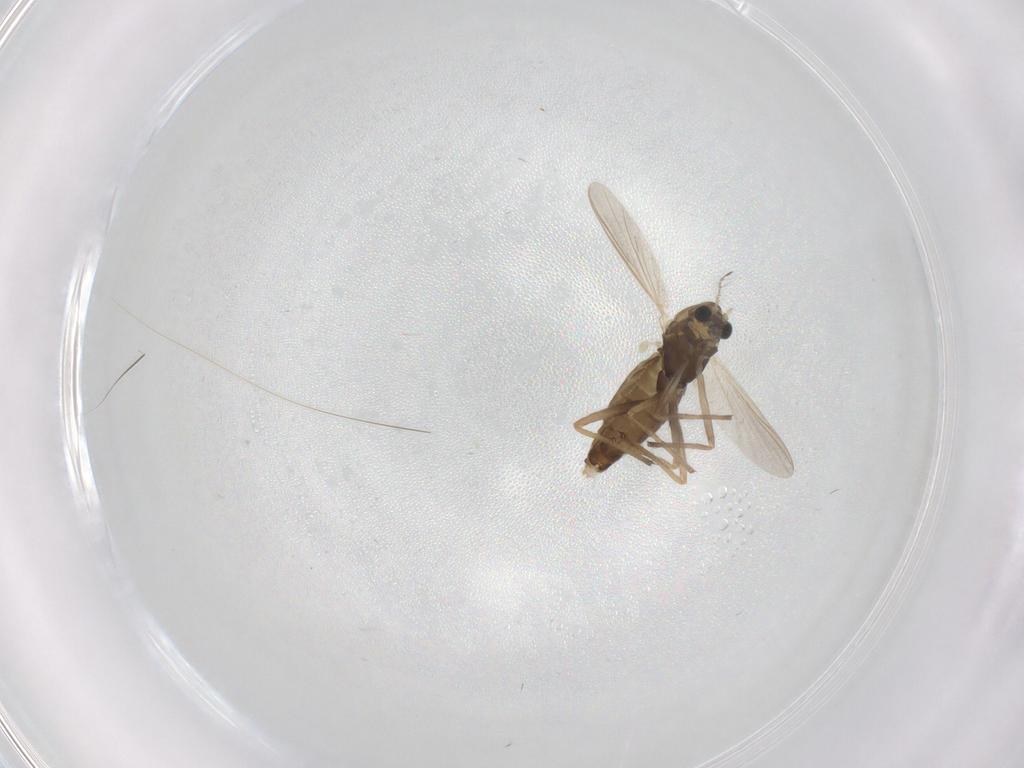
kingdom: Animalia
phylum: Arthropoda
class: Insecta
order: Diptera
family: Chironomidae
